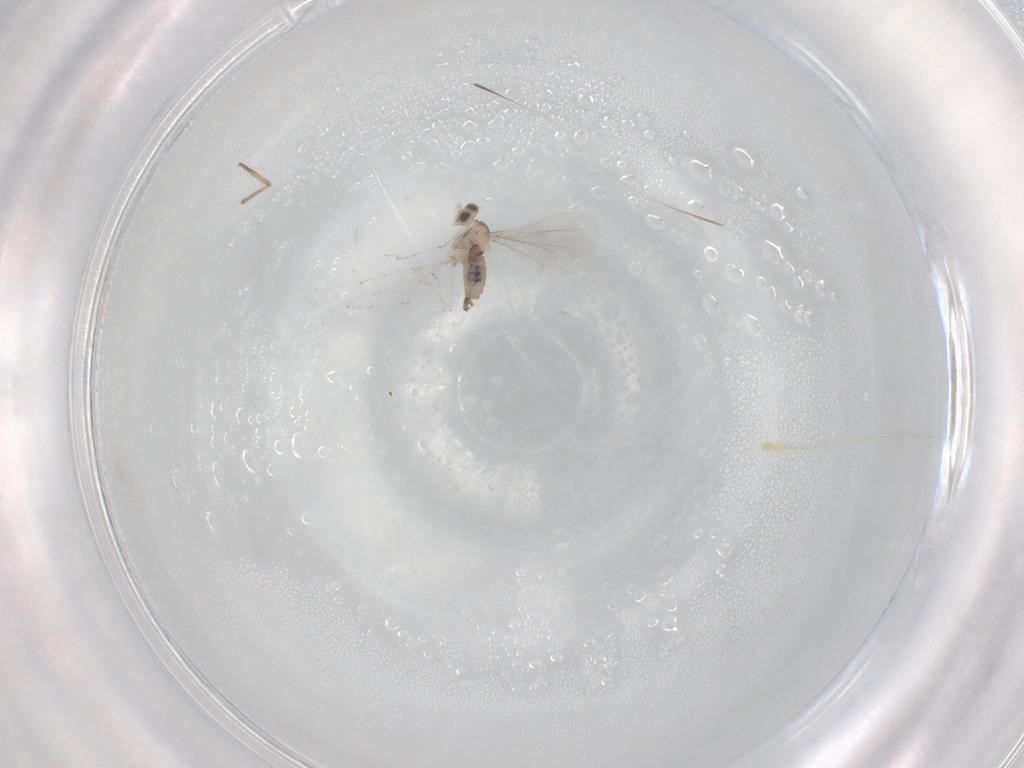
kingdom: Animalia
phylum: Arthropoda
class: Insecta
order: Diptera
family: Cecidomyiidae
